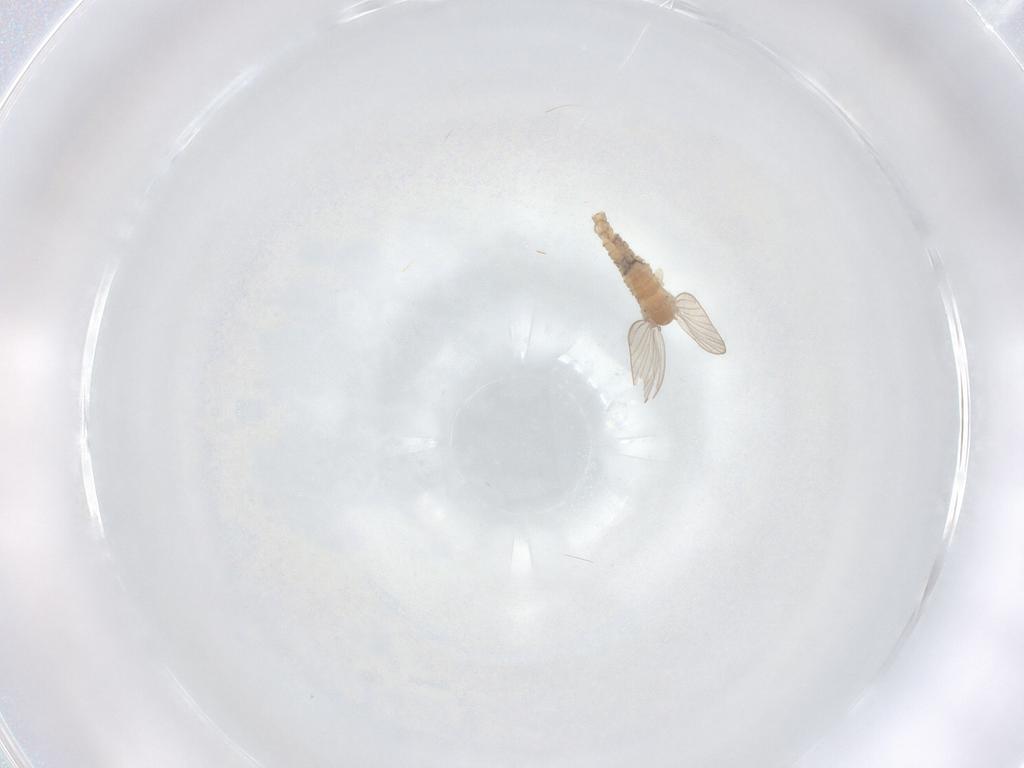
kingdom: Animalia
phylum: Arthropoda
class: Insecta
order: Diptera
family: Psychodidae
